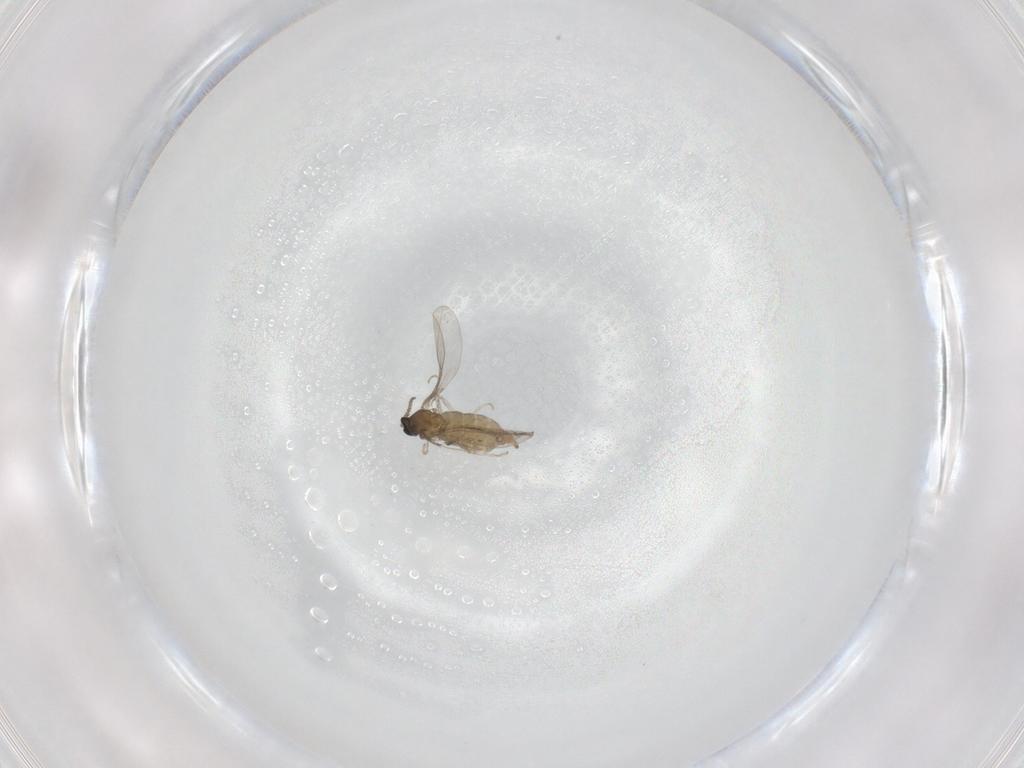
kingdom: Animalia
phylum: Arthropoda
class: Insecta
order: Diptera
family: Cecidomyiidae
